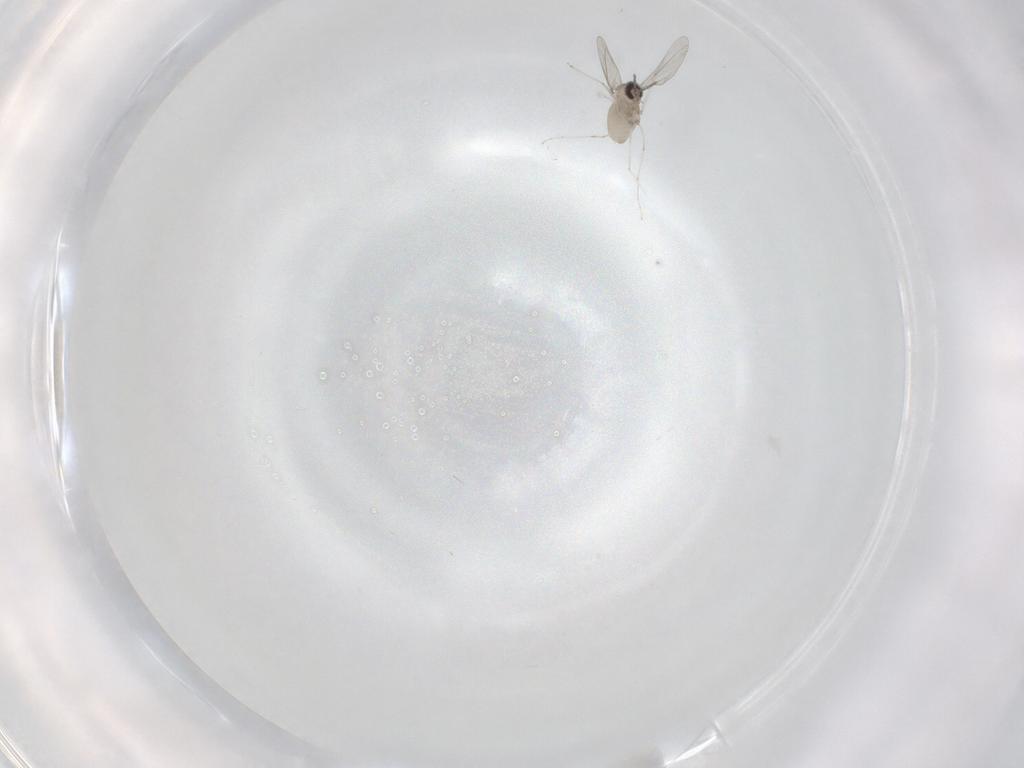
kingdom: Animalia
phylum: Arthropoda
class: Insecta
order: Diptera
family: Cecidomyiidae
